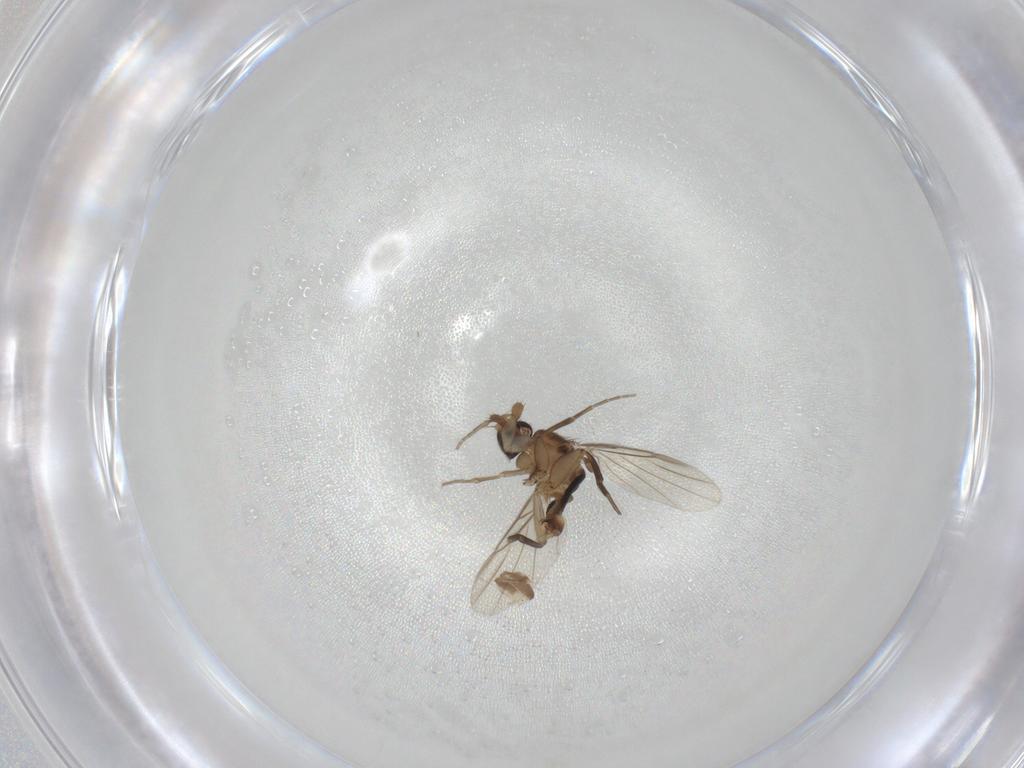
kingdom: Animalia
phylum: Arthropoda
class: Insecta
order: Diptera
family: Phoridae
